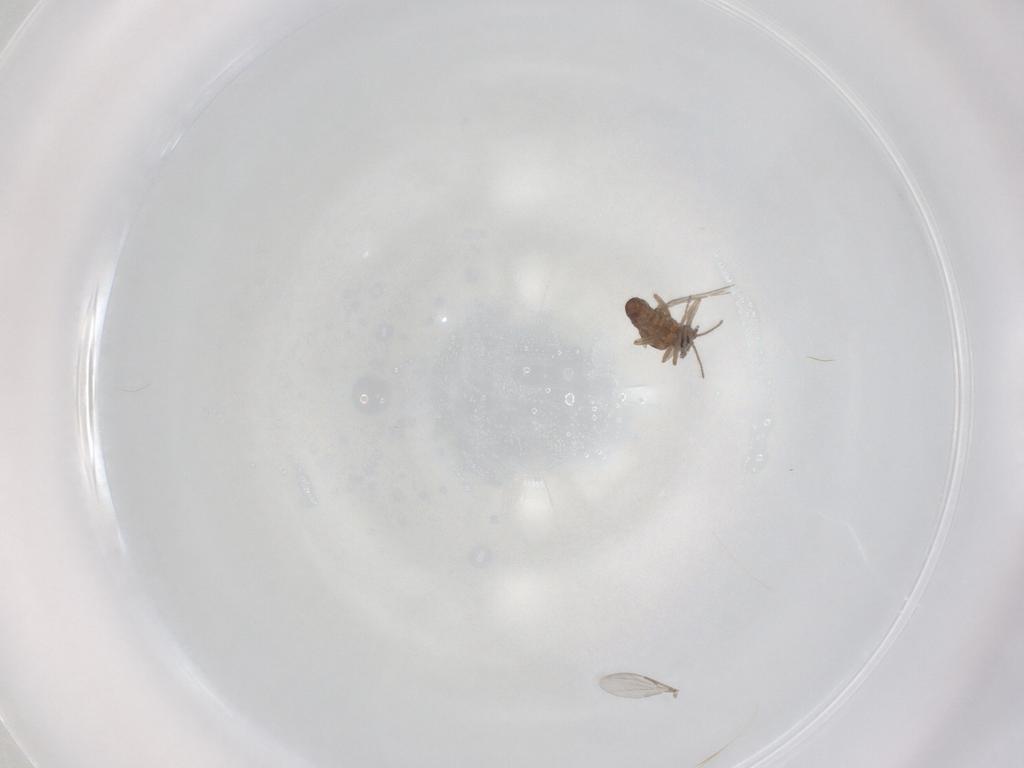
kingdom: Animalia
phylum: Arthropoda
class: Insecta
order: Diptera
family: Ceratopogonidae
